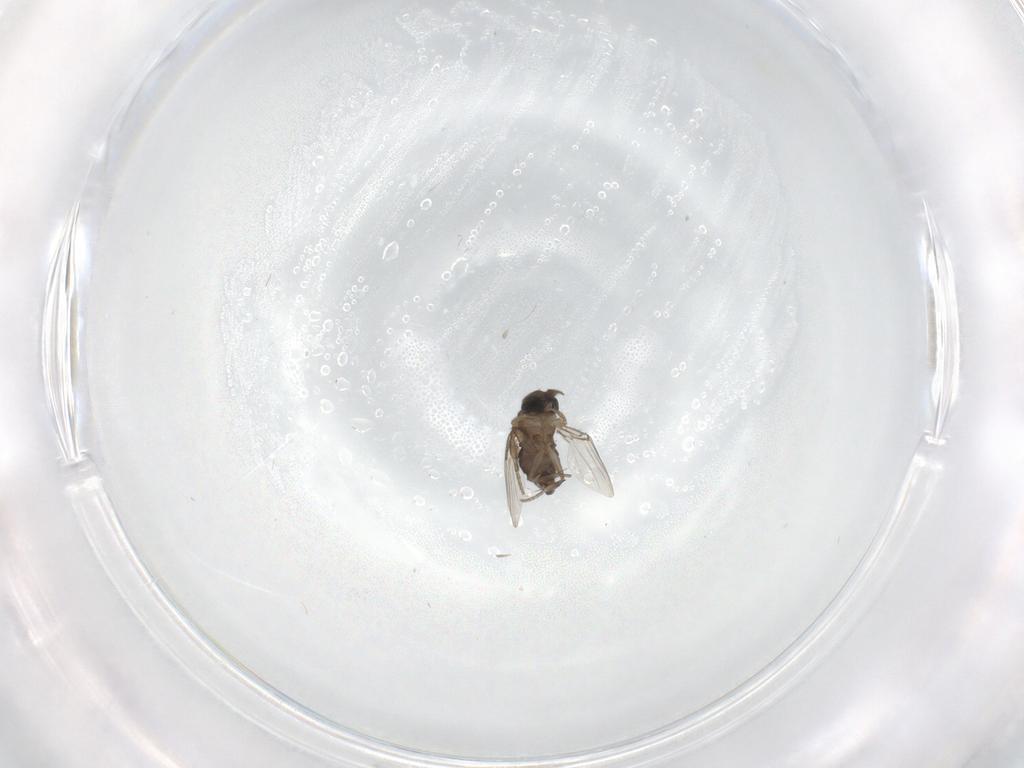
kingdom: Animalia
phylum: Arthropoda
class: Insecta
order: Diptera
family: Phoridae
